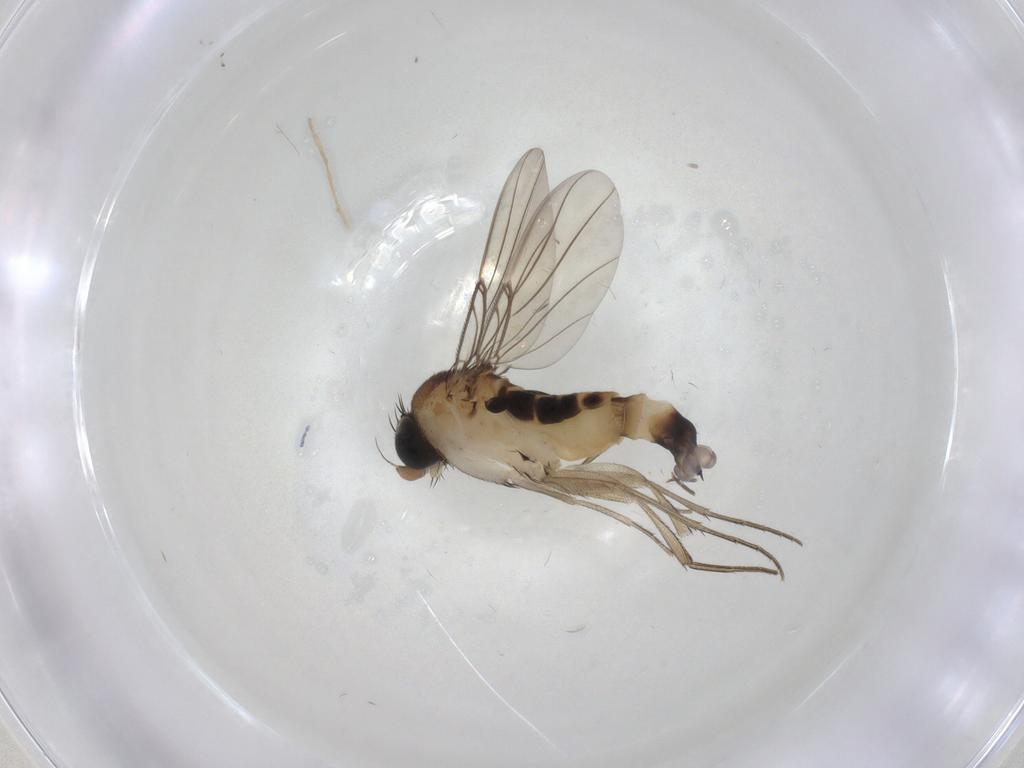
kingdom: Animalia
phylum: Arthropoda
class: Insecta
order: Diptera
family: Phoridae
